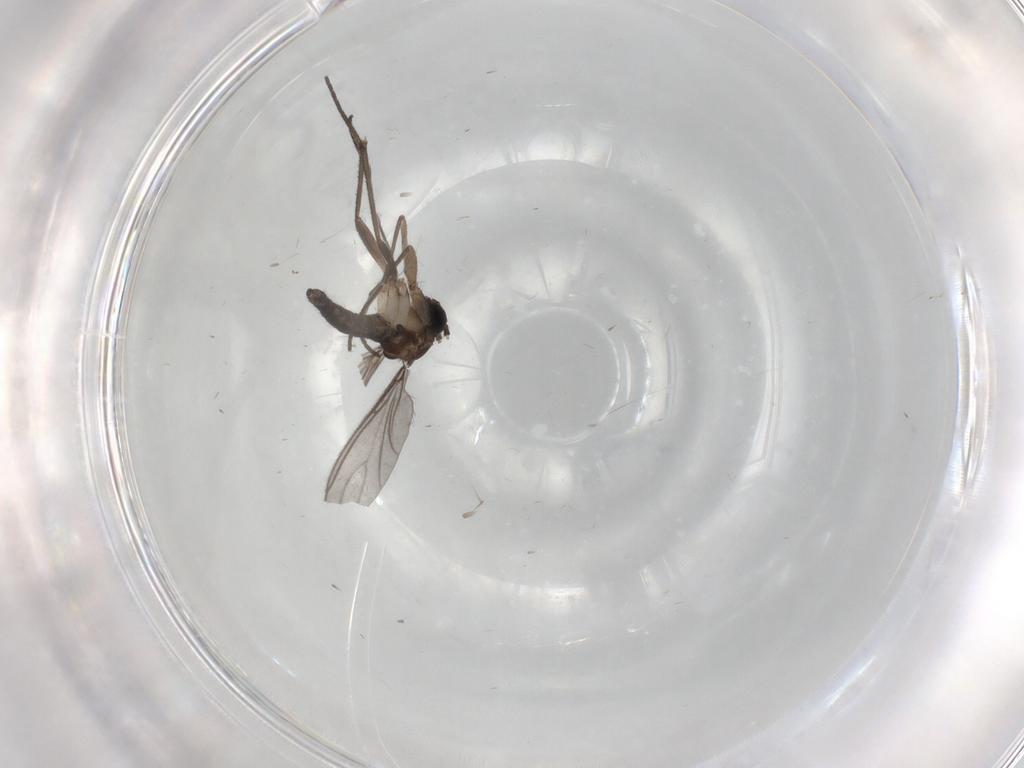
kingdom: Animalia
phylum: Arthropoda
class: Insecta
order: Diptera
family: Sciaridae
